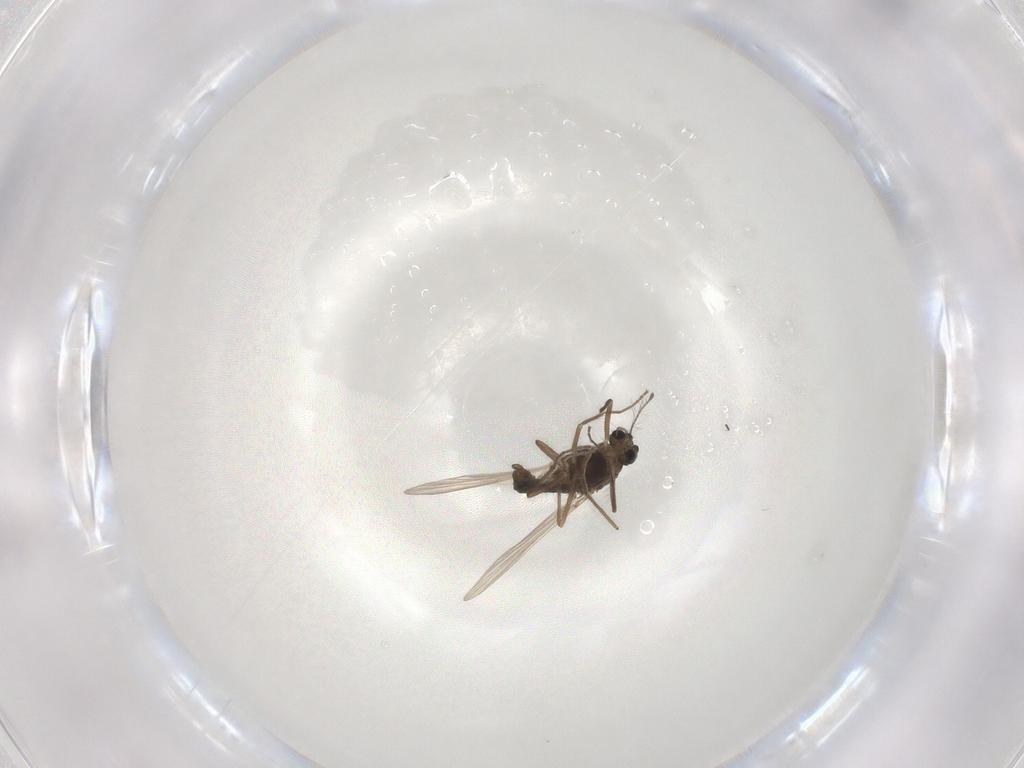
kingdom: Animalia
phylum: Arthropoda
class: Insecta
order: Diptera
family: Chironomidae
